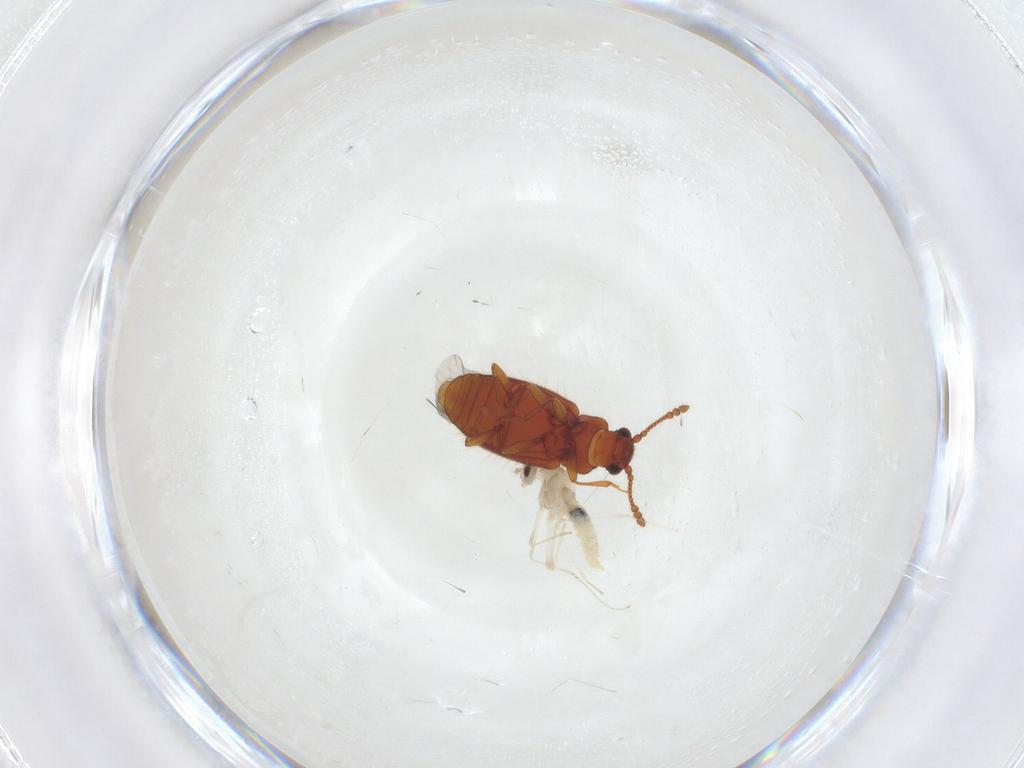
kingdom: Animalia
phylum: Arthropoda
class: Insecta
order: Diptera
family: Cecidomyiidae
